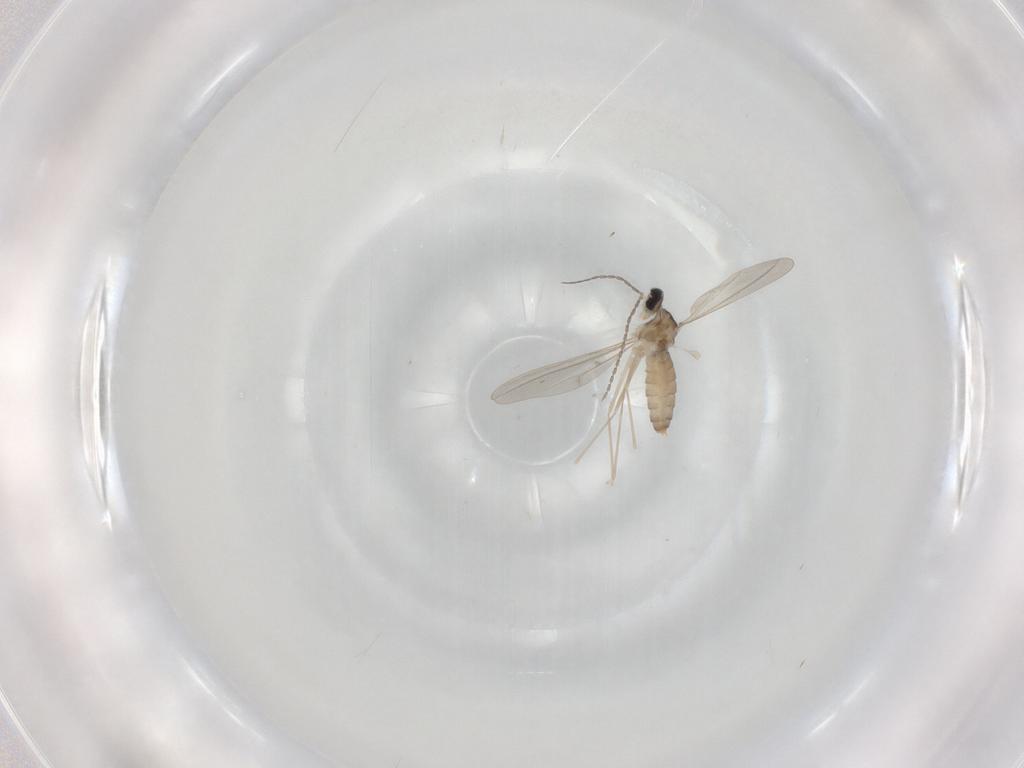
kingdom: Animalia
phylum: Arthropoda
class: Insecta
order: Diptera
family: Cecidomyiidae
